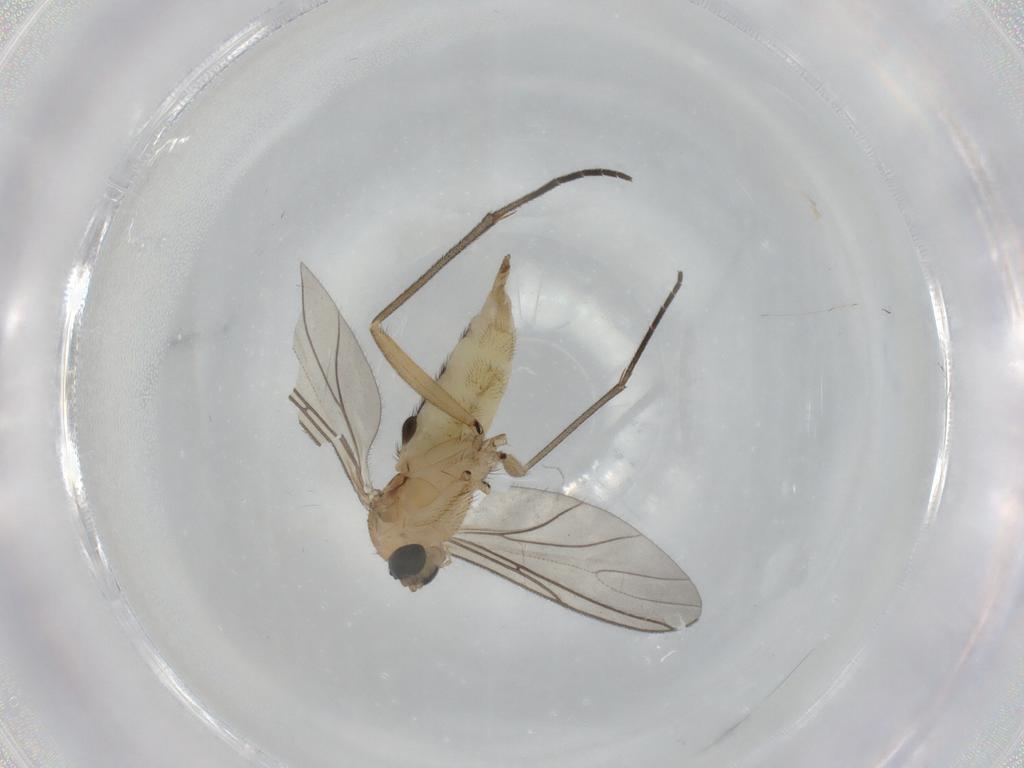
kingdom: Animalia
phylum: Arthropoda
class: Insecta
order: Diptera
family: Sciaridae
